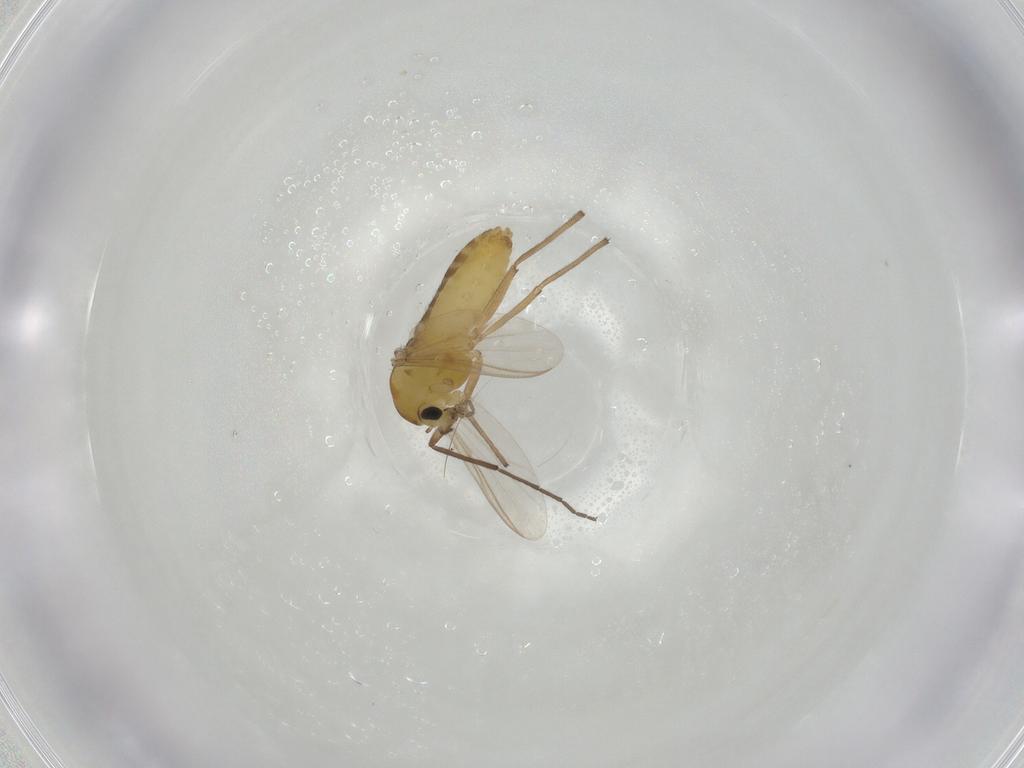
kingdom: Animalia
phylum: Arthropoda
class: Insecta
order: Diptera
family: Chironomidae
